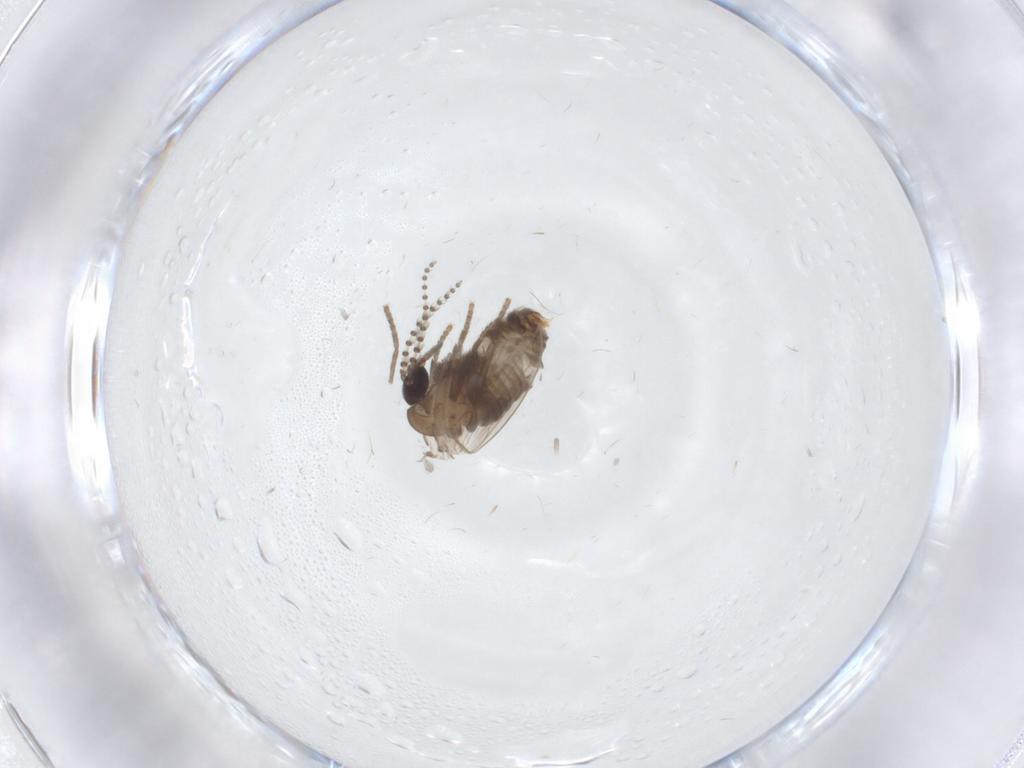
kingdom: Animalia
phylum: Arthropoda
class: Insecta
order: Diptera
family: Psychodidae
